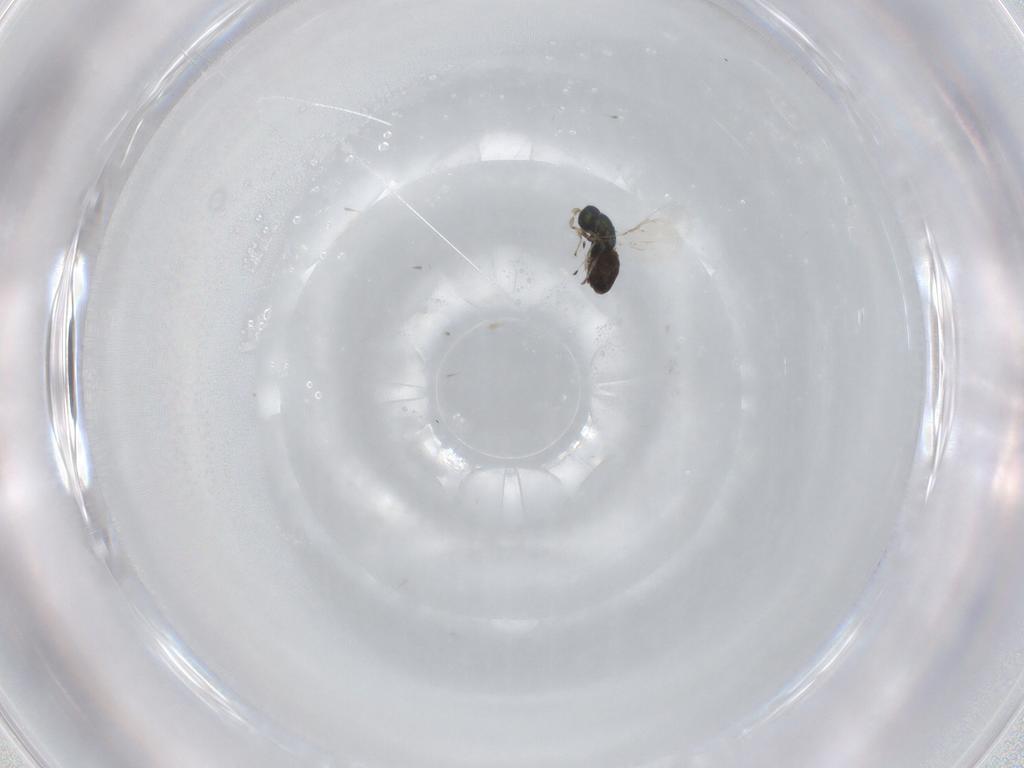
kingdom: Animalia
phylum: Arthropoda
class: Insecta
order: Hymenoptera
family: Eulophidae
